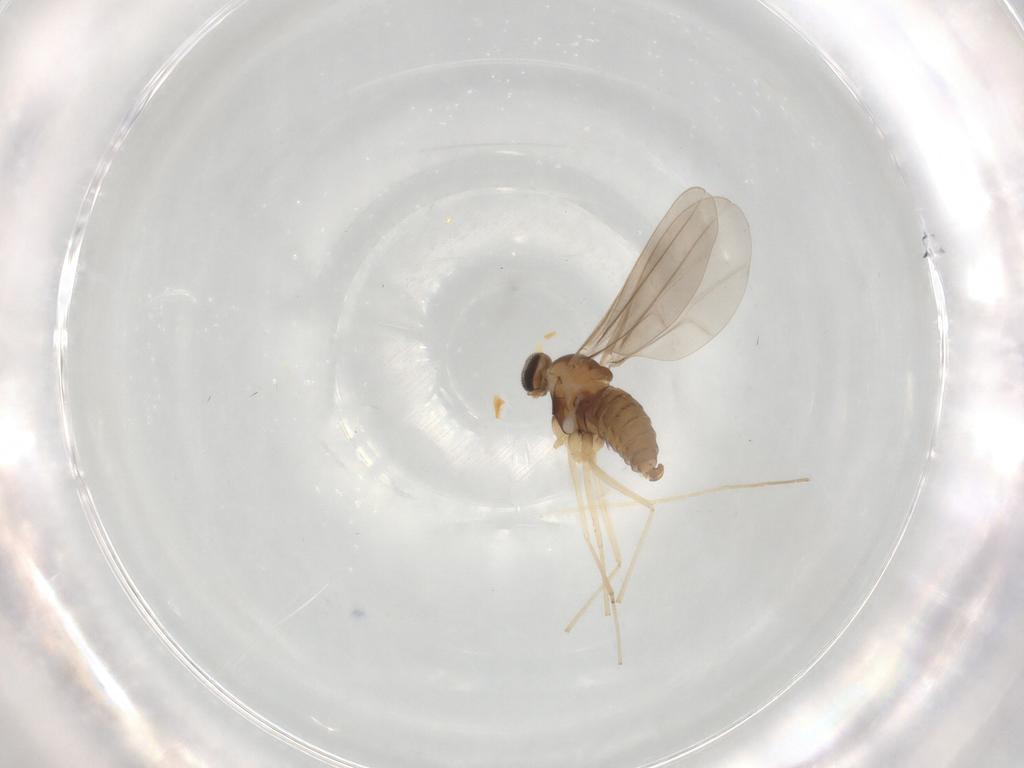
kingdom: Animalia
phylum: Arthropoda
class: Insecta
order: Diptera
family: Cecidomyiidae
